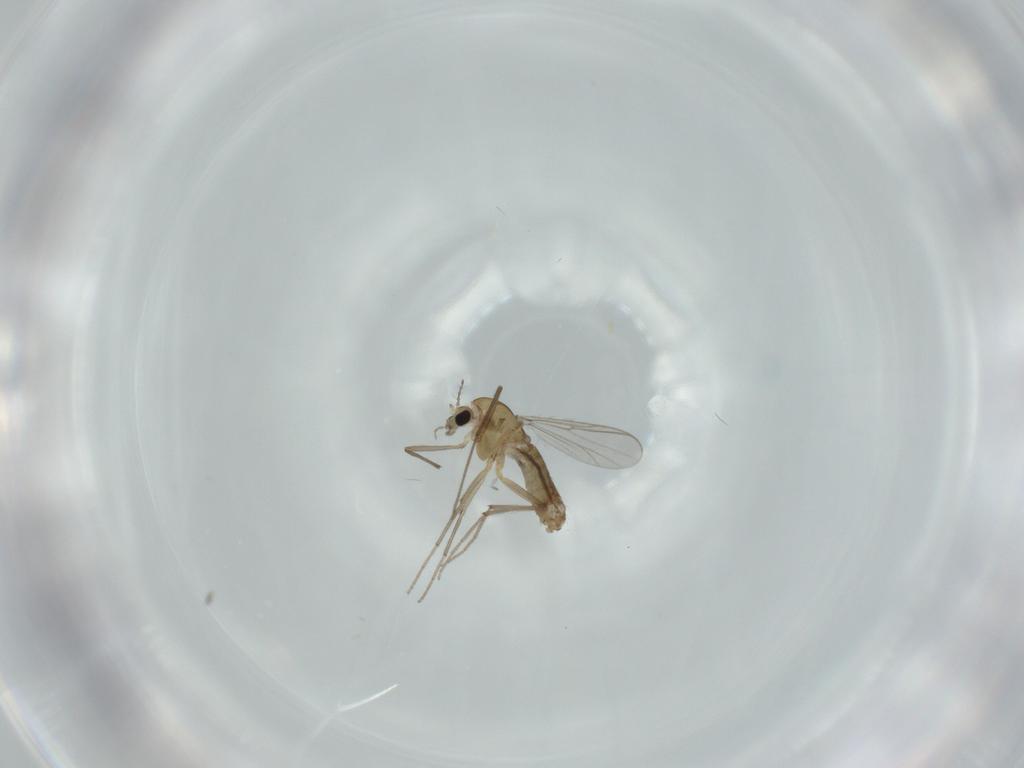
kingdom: Animalia
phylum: Arthropoda
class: Insecta
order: Diptera
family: Chironomidae
